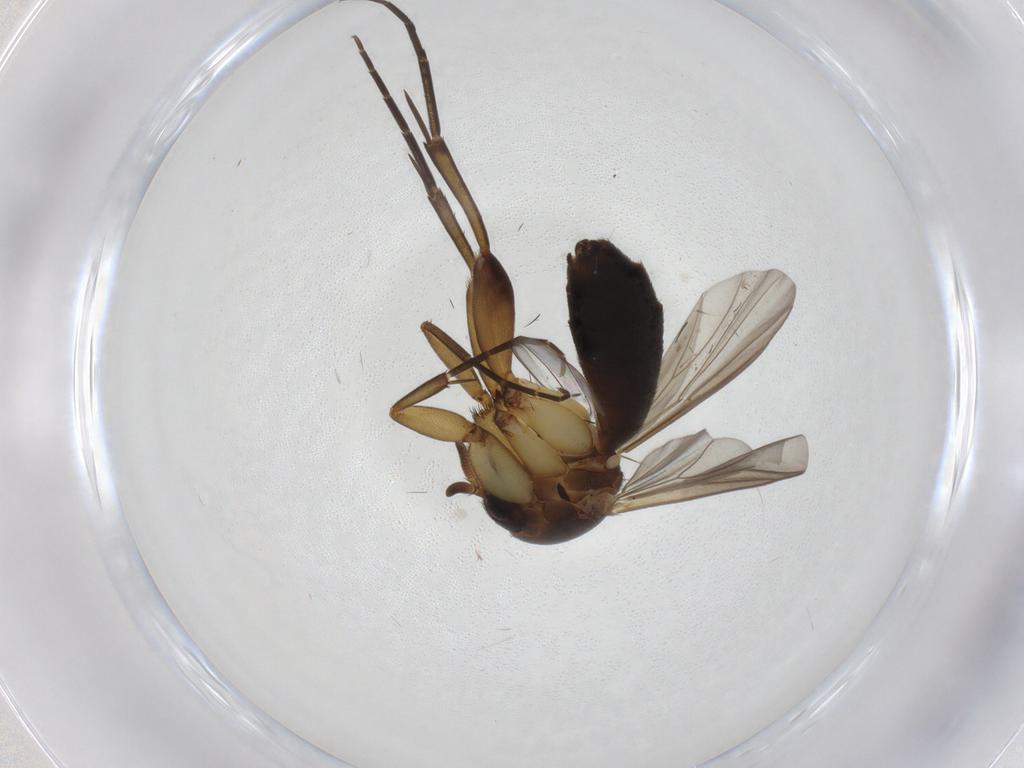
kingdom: Animalia
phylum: Arthropoda
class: Insecta
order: Diptera
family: Mycetophilidae
